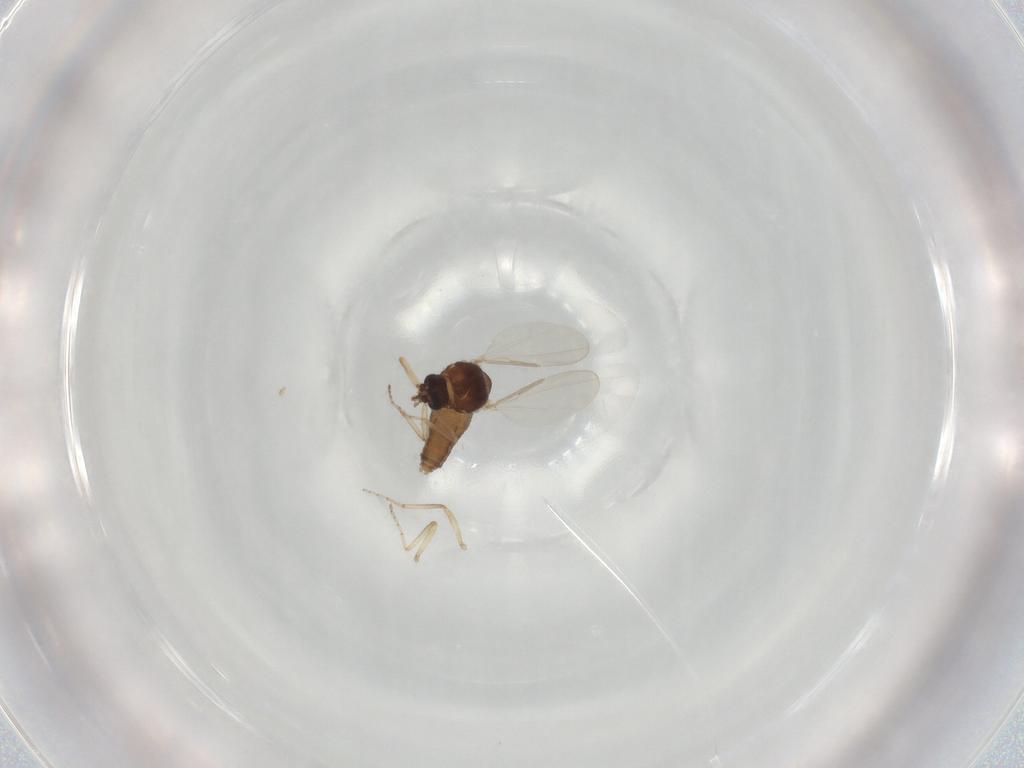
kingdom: Animalia
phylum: Arthropoda
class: Insecta
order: Diptera
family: Ceratopogonidae
